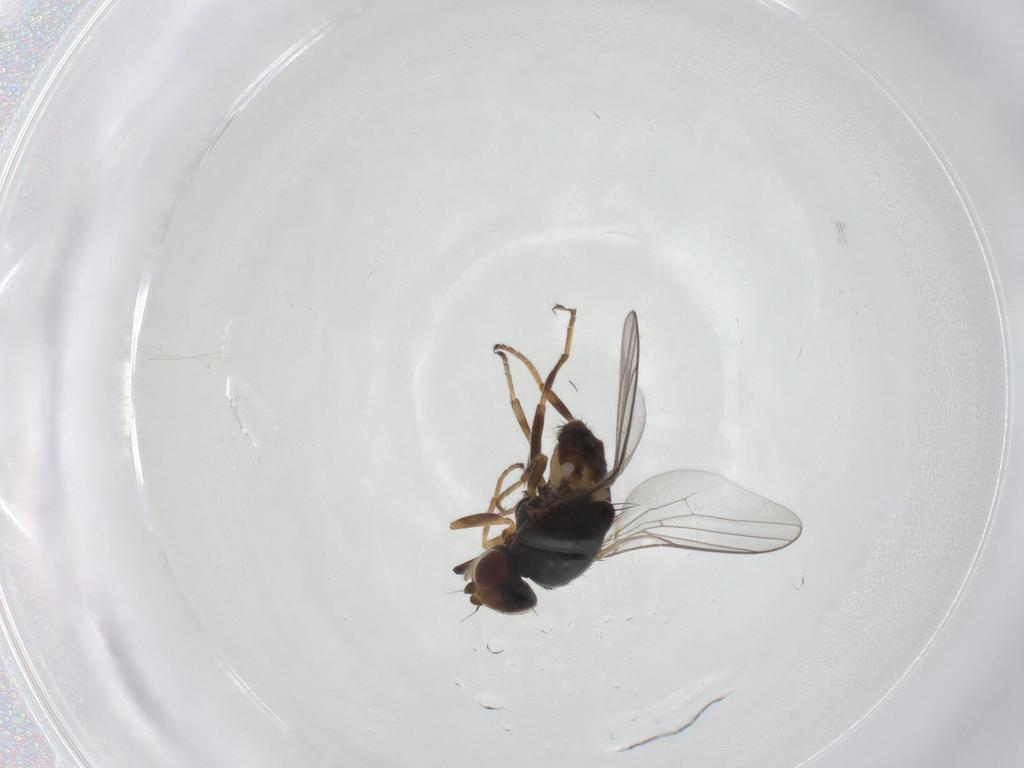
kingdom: Animalia
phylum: Arthropoda
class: Insecta
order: Diptera
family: Chloropidae
